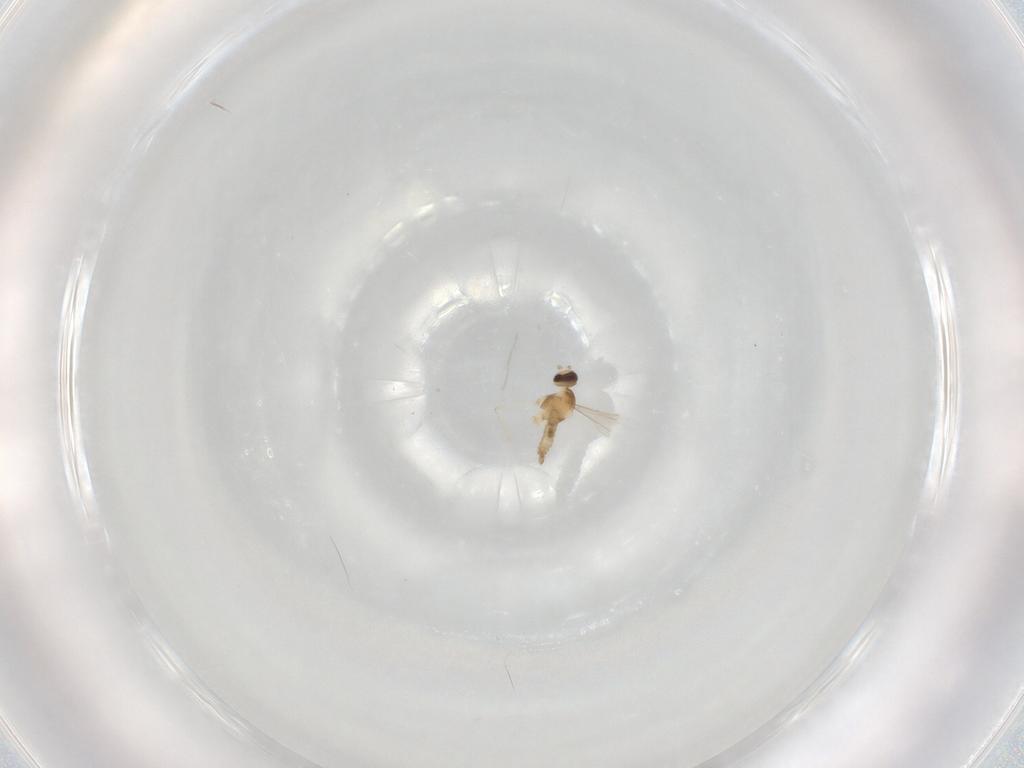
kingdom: Animalia
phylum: Arthropoda
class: Insecta
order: Diptera
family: Cecidomyiidae
